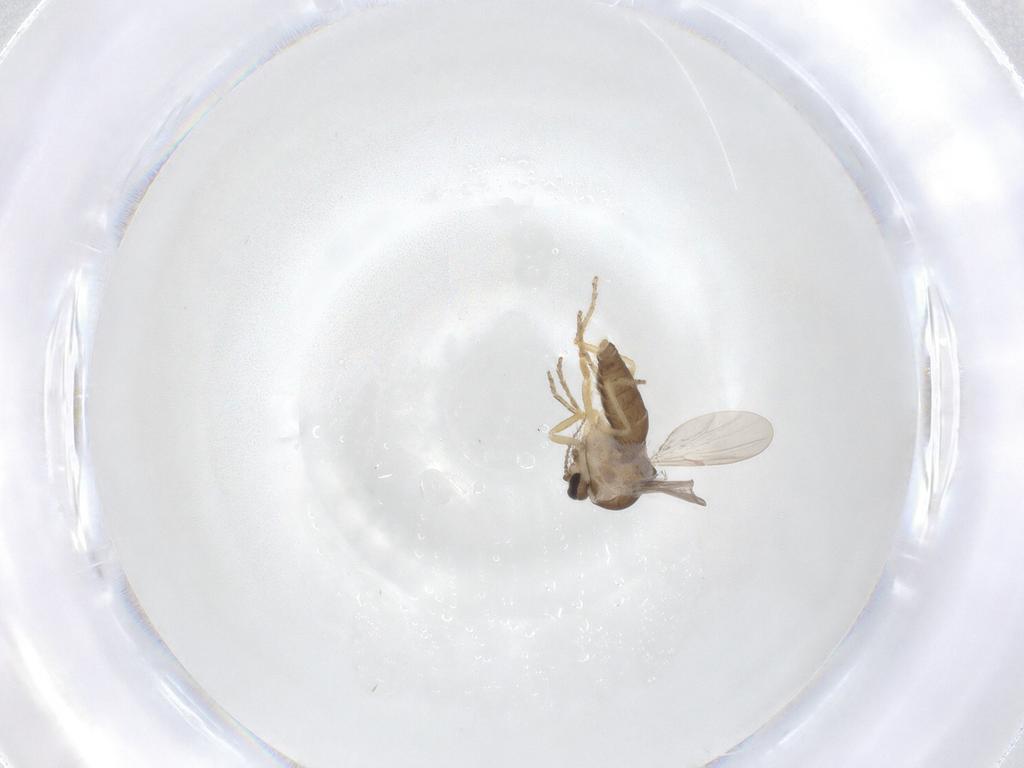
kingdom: Animalia
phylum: Arthropoda
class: Insecta
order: Diptera
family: Ceratopogonidae
